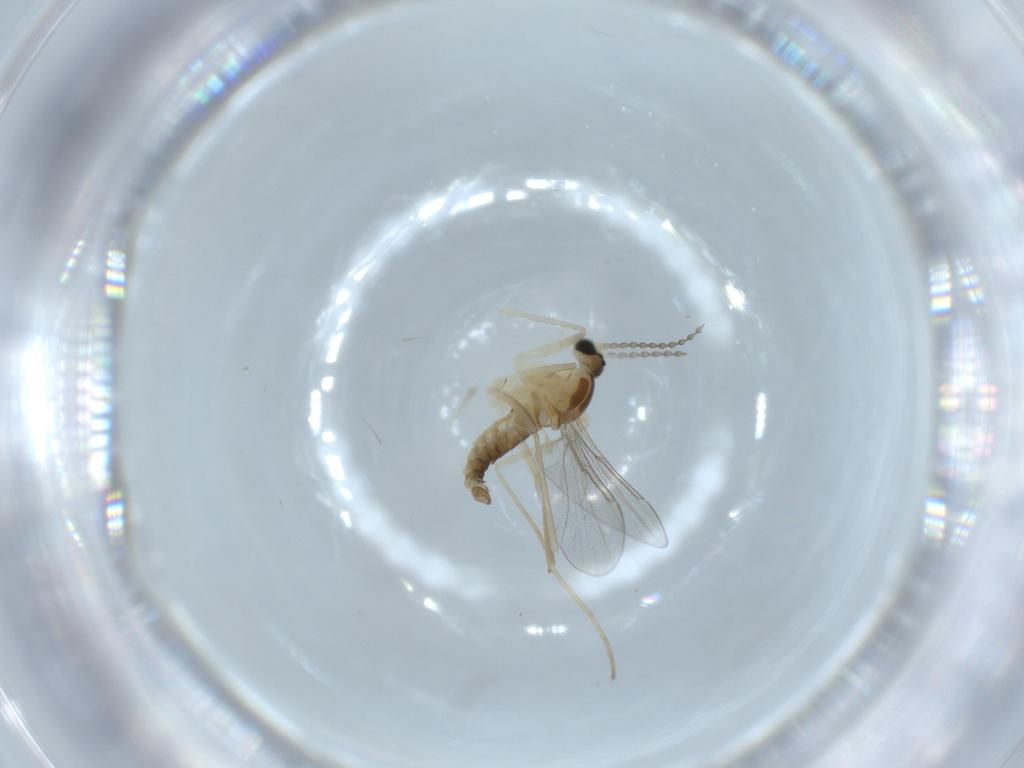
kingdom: Animalia
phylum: Arthropoda
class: Insecta
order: Diptera
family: Cecidomyiidae
